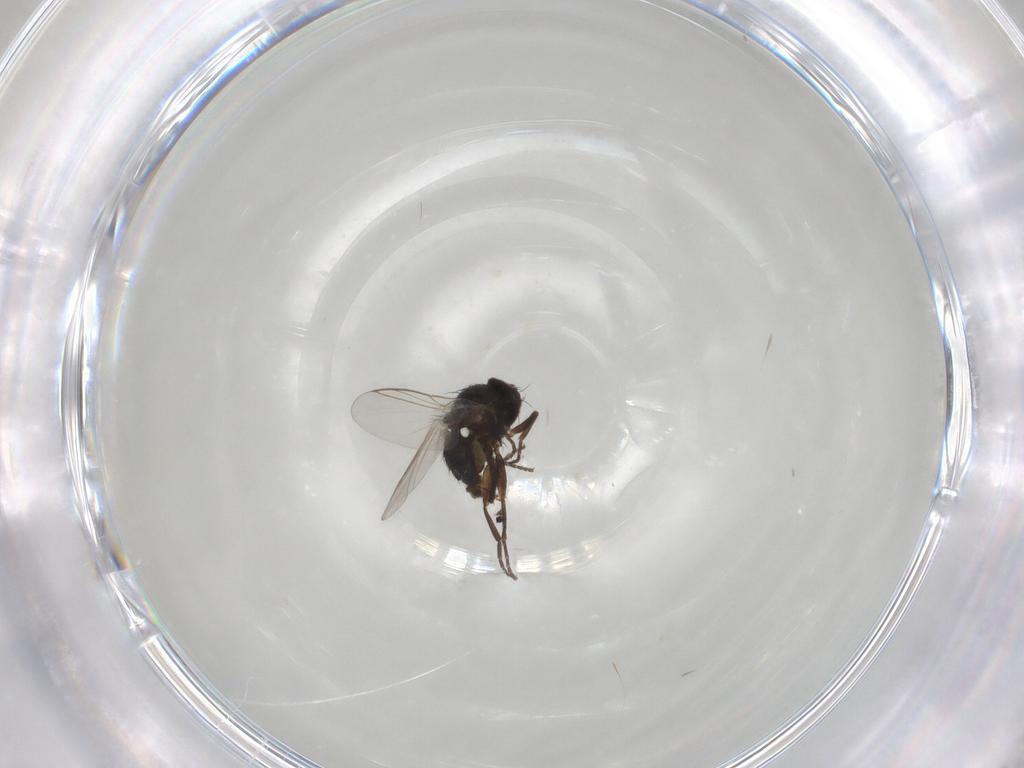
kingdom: Animalia
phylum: Arthropoda
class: Insecta
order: Diptera
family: Agromyzidae
